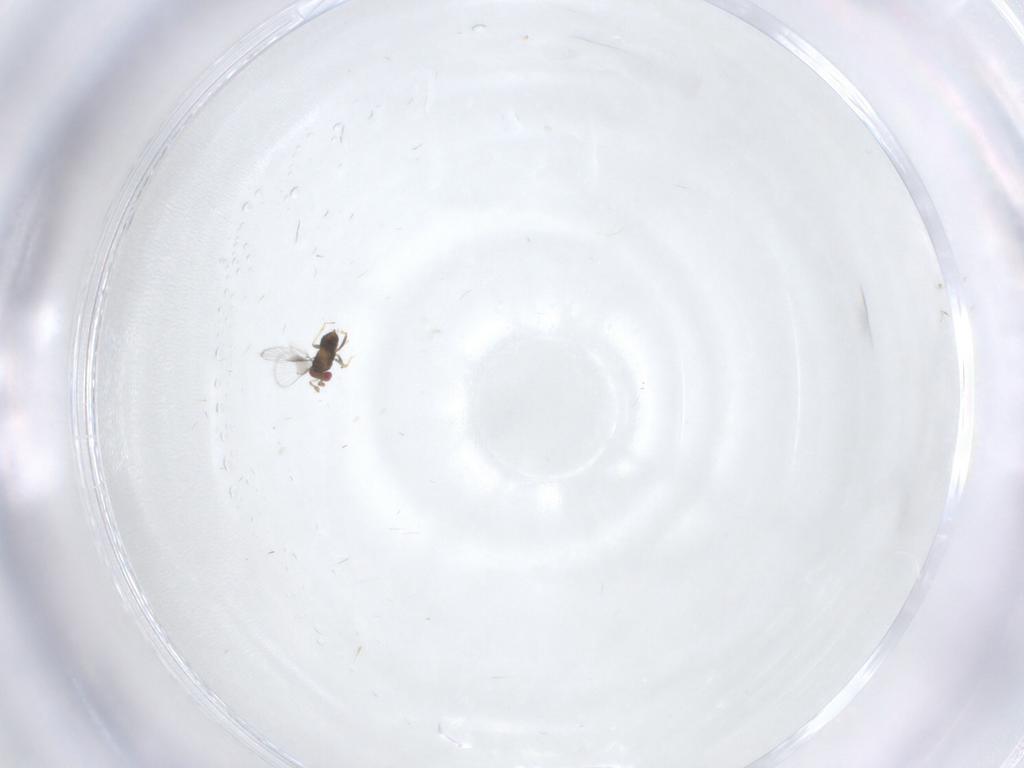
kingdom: Animalia
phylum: Arthropoda
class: Insecta
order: Hymenoptera
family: Trichogrammatidae
